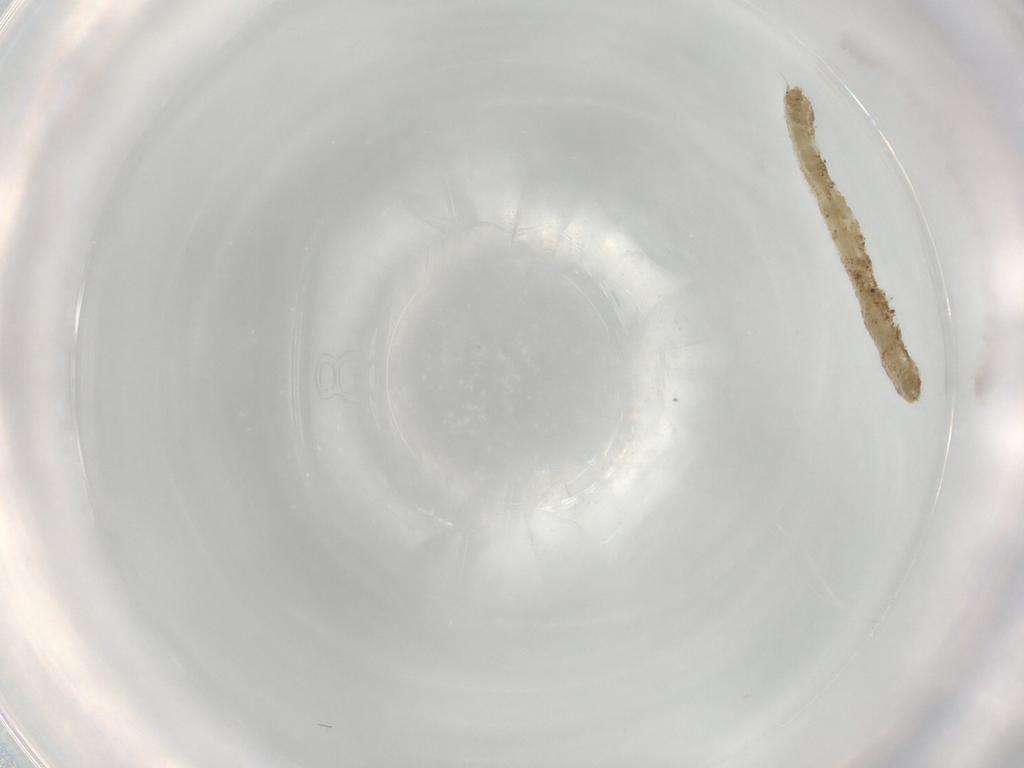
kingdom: Animalia
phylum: Arthropoda
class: Insecta
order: Diptera
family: Chironomidae
